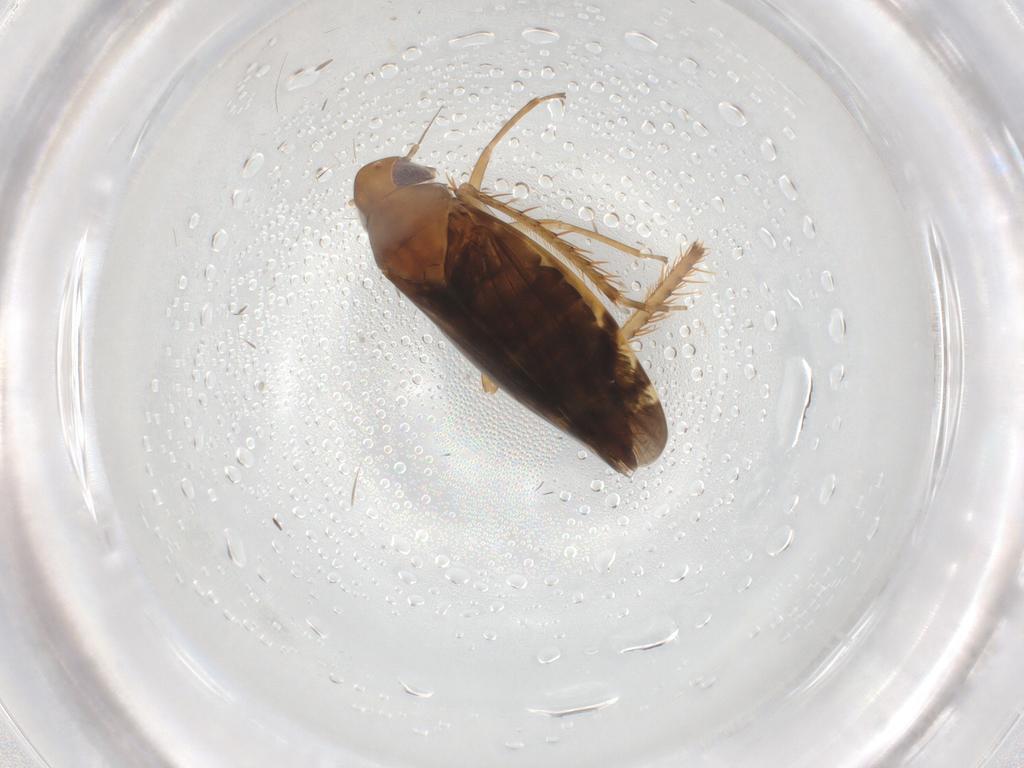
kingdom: Animalia
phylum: Arthropoda
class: Insecta
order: Hemiptera
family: Cicadellidae
